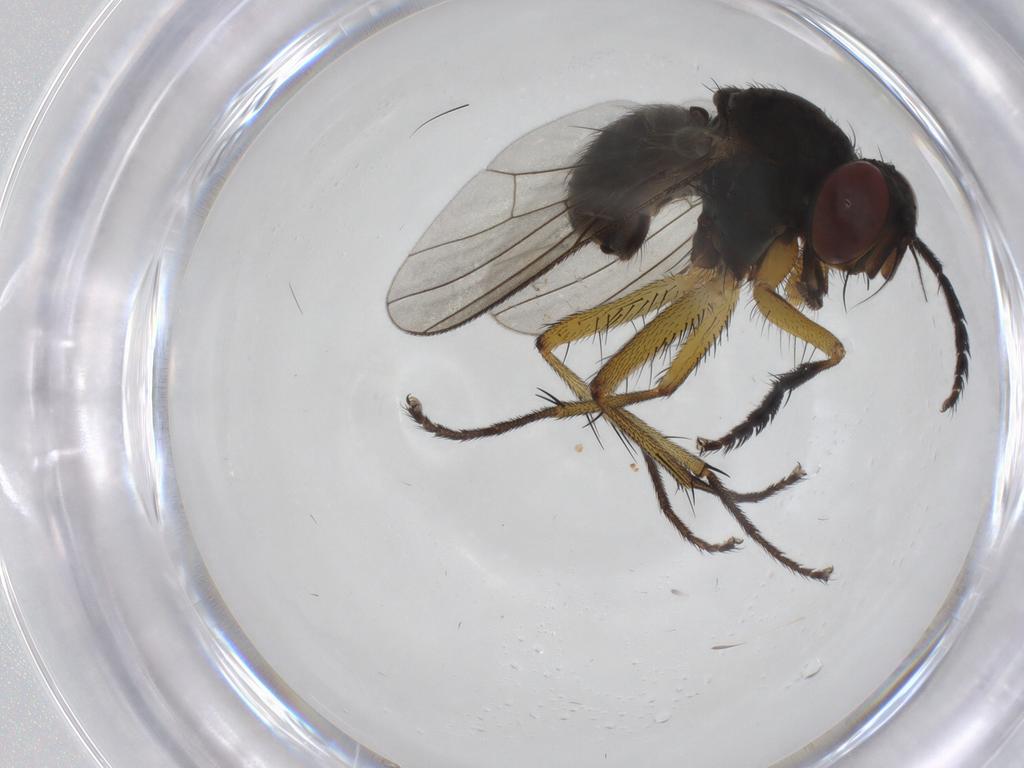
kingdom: Animalia
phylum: Arthropoda
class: Insecta
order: Diptera
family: Muscidae
